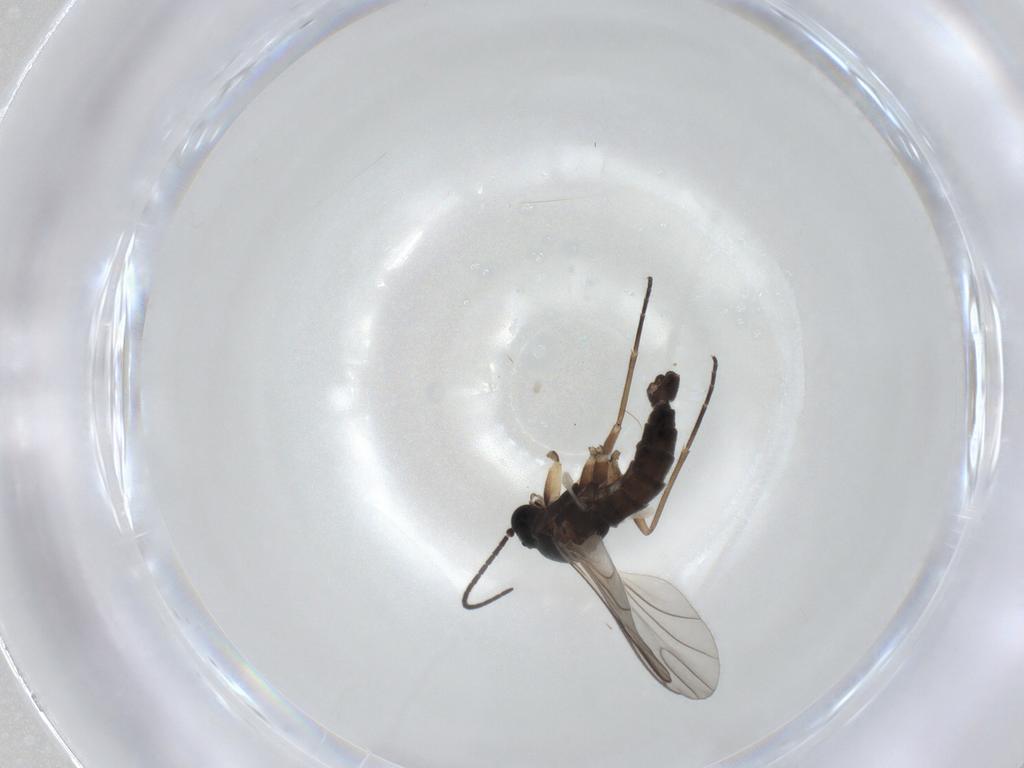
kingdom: Animalia
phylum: Arthropoda
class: Insecta
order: Diptera
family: Sciaridae
